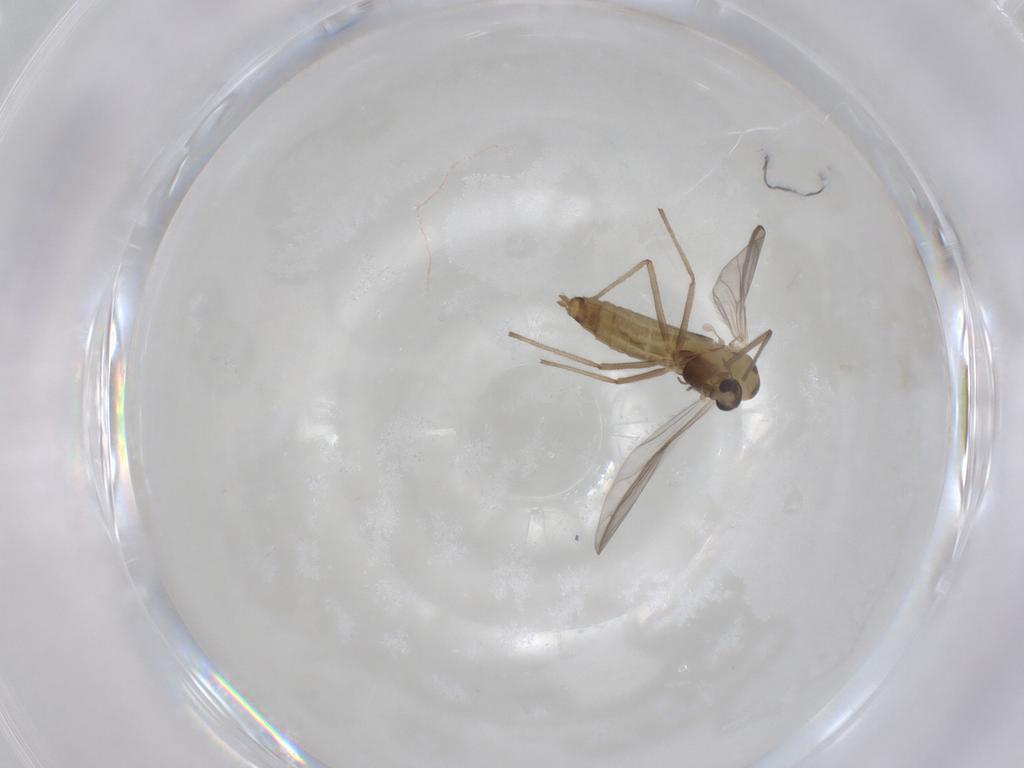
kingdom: Animalia
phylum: Arthropoda
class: Insecta
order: Diptera
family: Chironomidae
